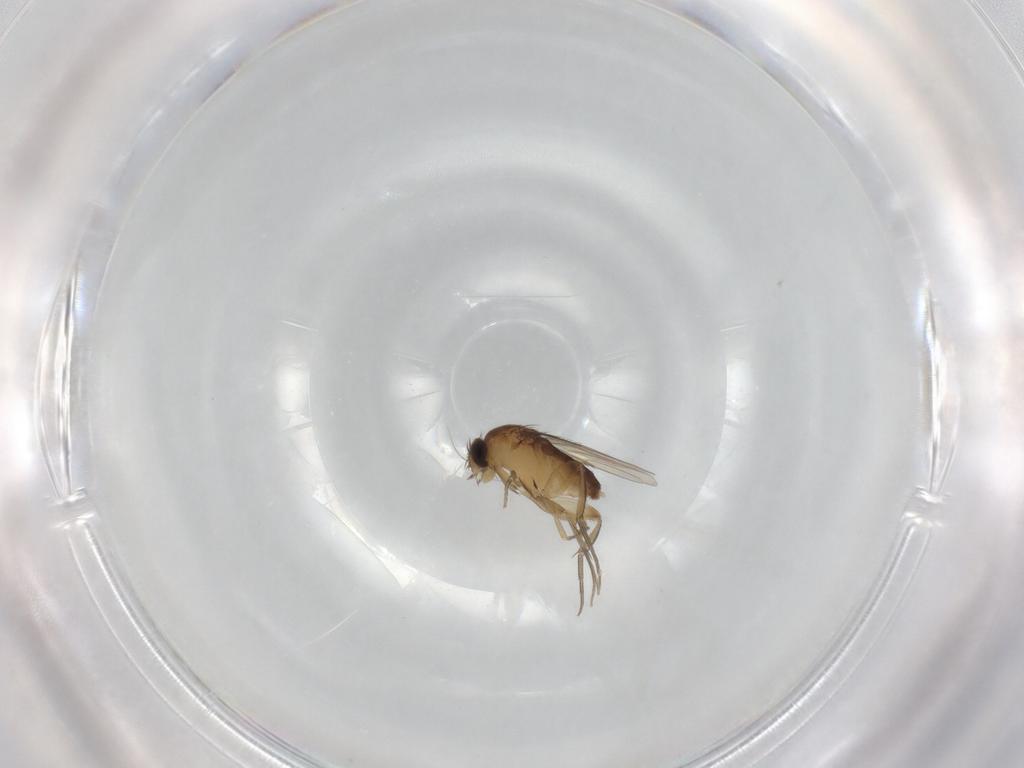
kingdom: Animalia
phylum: Arthropoda
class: Insecta
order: Diptera
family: Phoridae
